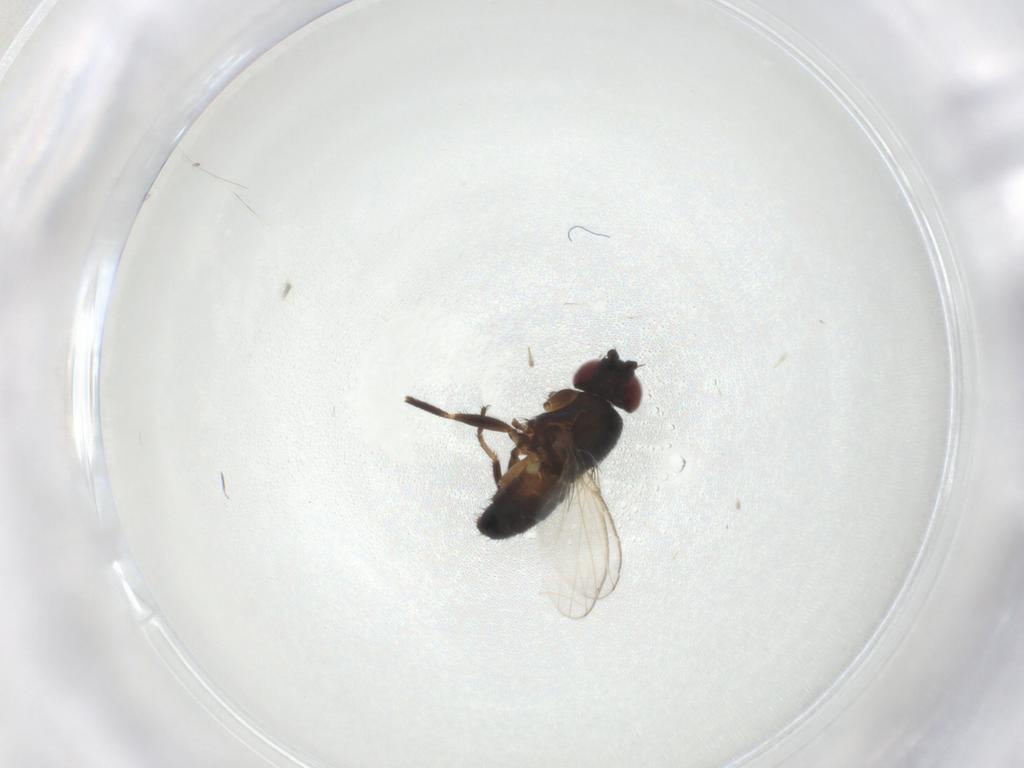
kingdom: Animalia
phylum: Arthropoda
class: Insecta
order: Diptera
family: Milichiidae
